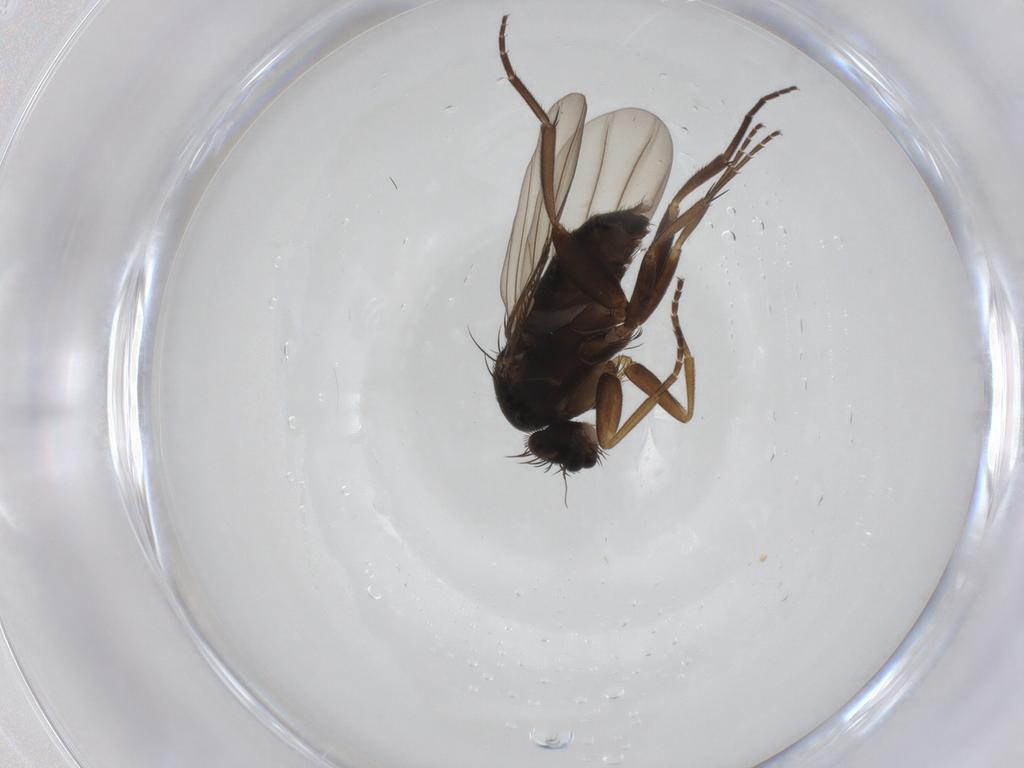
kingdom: Animalia
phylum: Arthropoda
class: Insecta
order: Diptera
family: Phoridae
